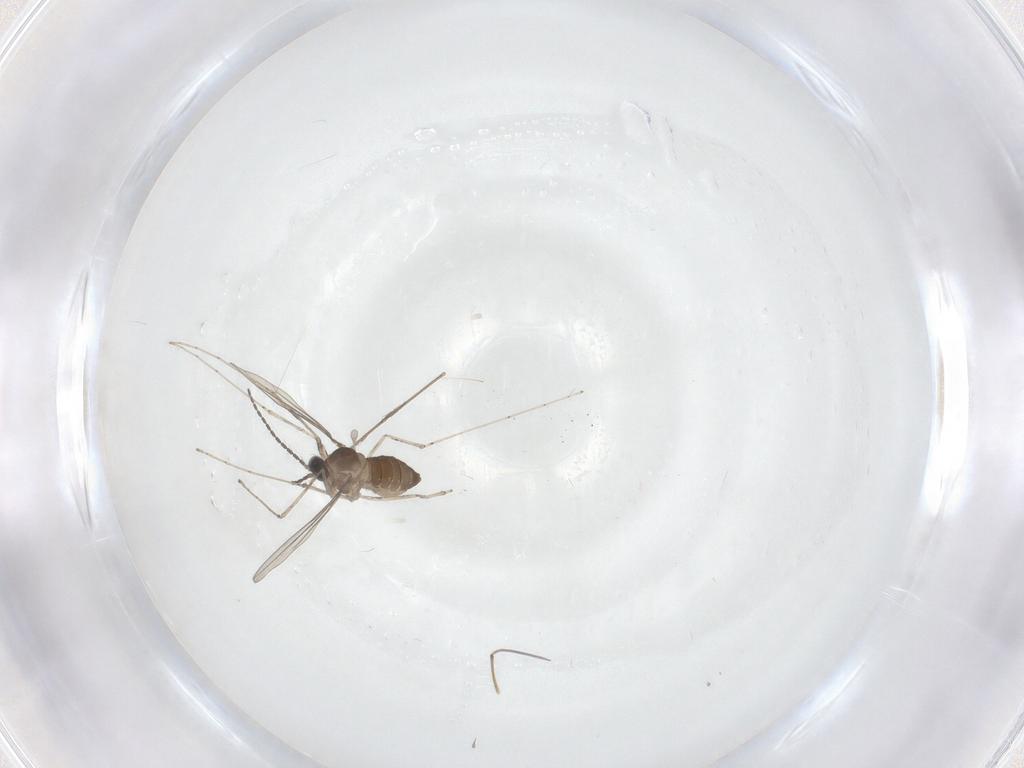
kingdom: Animalia
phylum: Arthropoda
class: Insecta
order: Diptera
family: Cecidomyiidae
